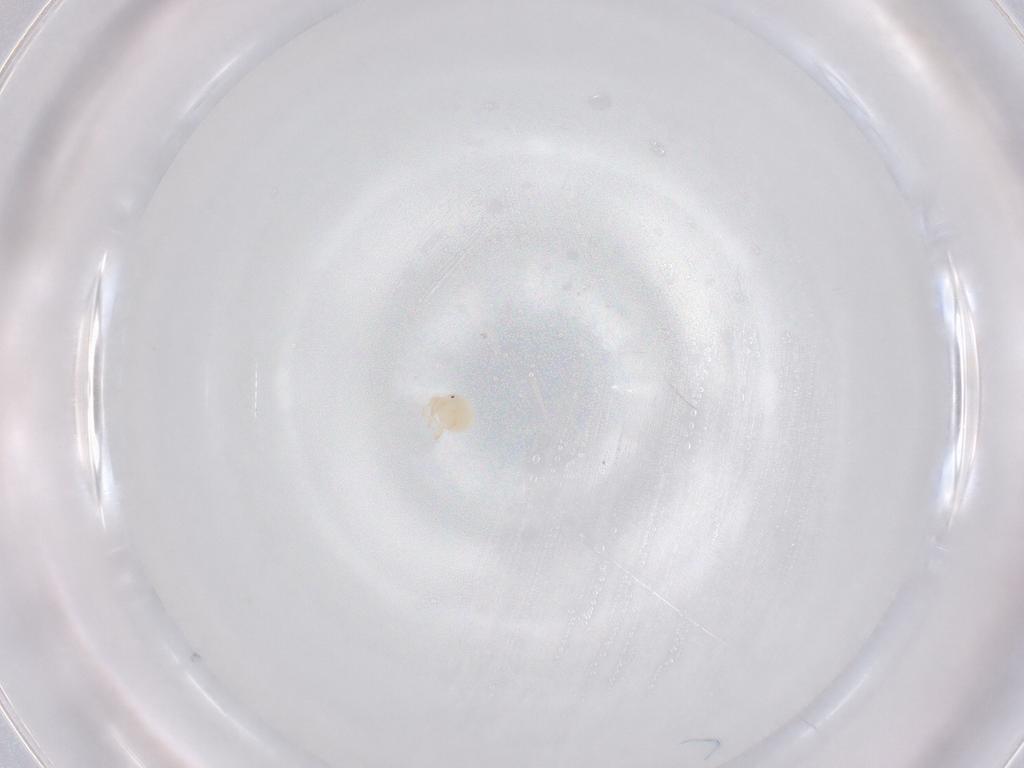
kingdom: Animalia
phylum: Arthropoda
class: Arachnida
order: Trombidiformes
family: Sperchontidae
